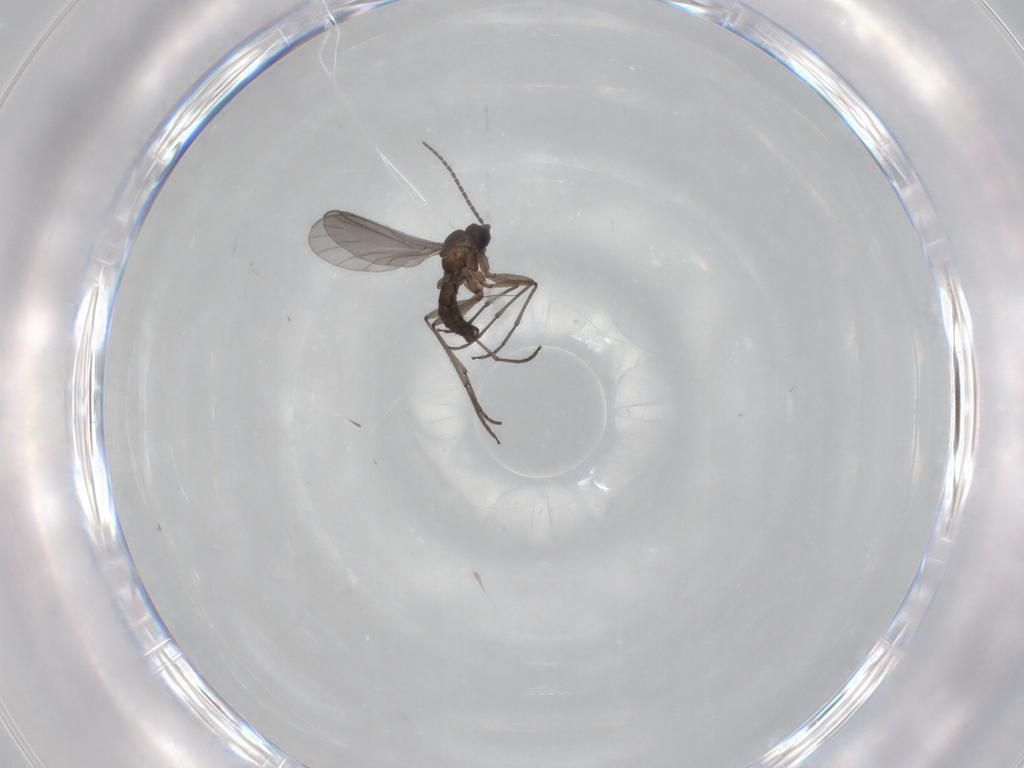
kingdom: Animalia
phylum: Arthropoda
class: Insecta
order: Diptera
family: Sciaridae
